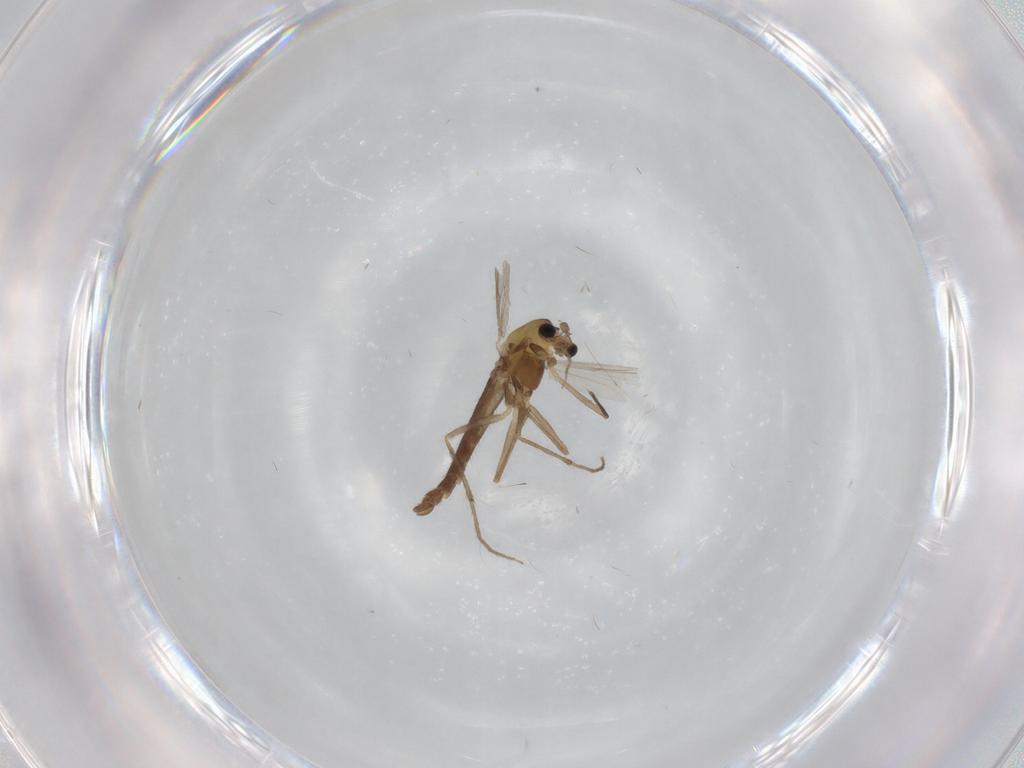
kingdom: Animalia
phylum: Arthropoda
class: Insecta
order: Diptera
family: Chironomidae
